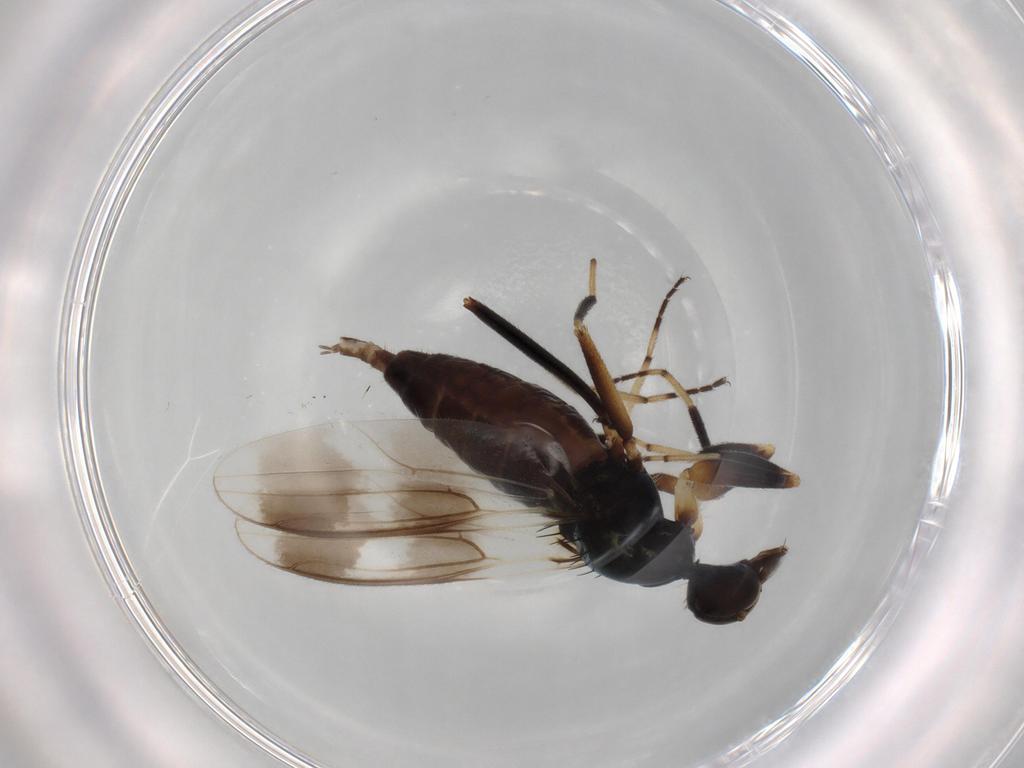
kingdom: Animalia
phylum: Arthropoda
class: Insecta
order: Diptera
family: Hybotidae
